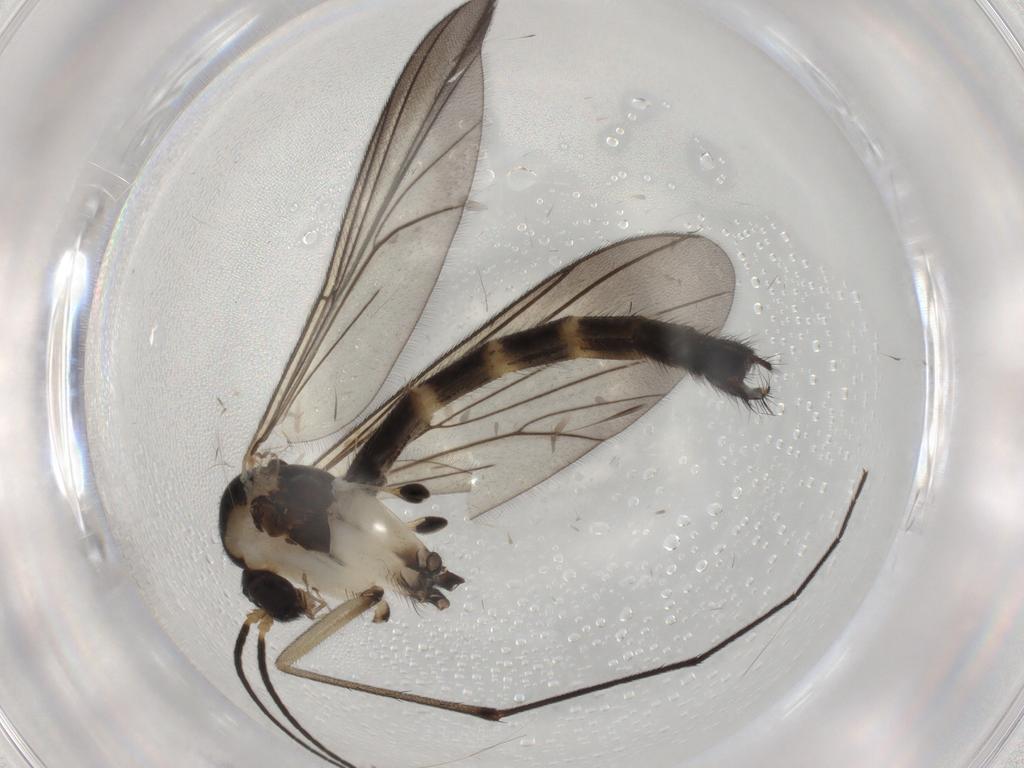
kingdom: Animalia
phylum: Arthropoda
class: Insecta
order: Diptera
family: Sciaridae
